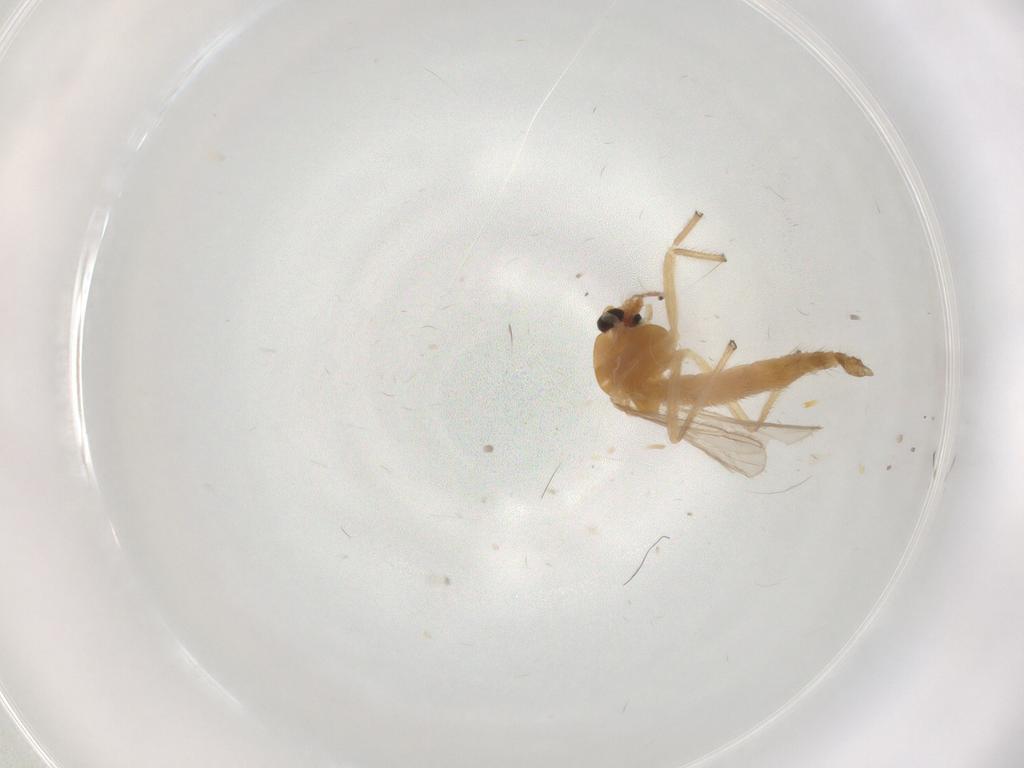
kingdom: Animalia
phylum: Arthropoda
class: Insecta
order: Diptera
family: Chironomidae
